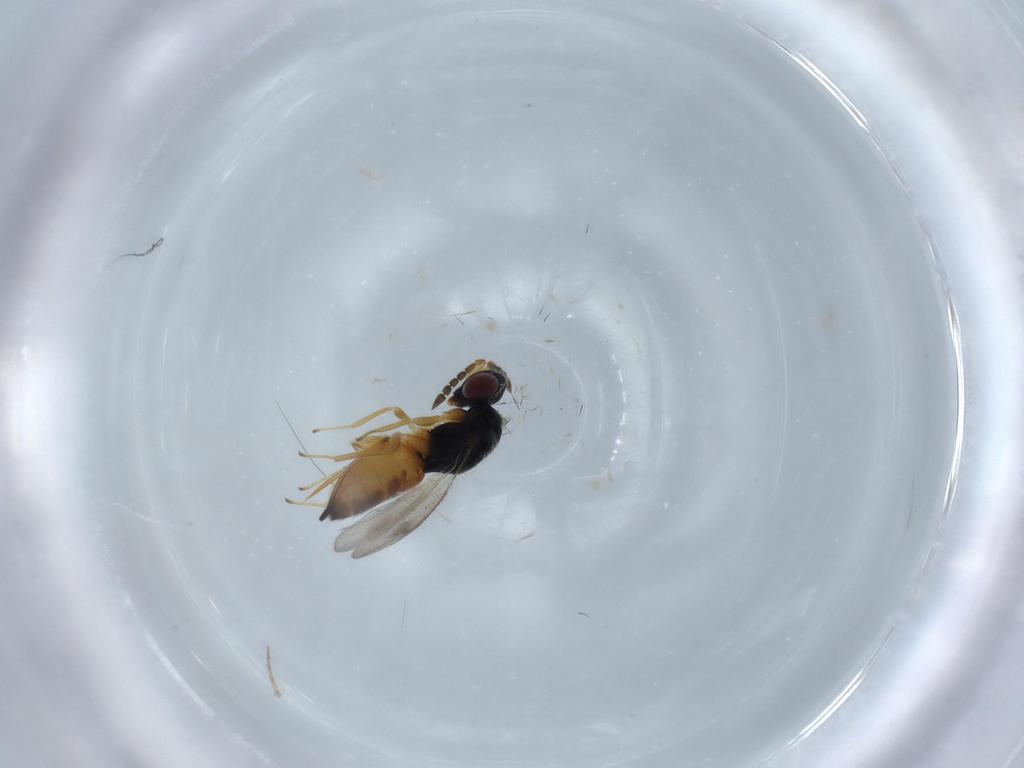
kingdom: Animalia
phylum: Arthropoda
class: Insecta
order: Hymenoptera
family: Eulophidae
